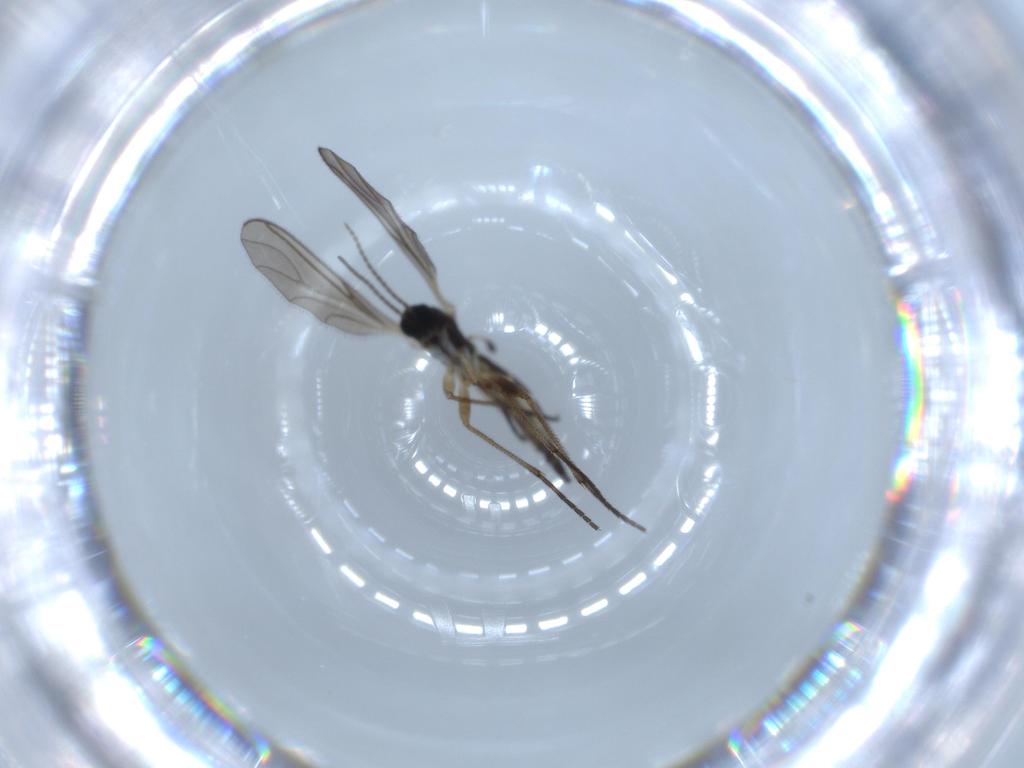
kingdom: Animalia
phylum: Arthropoda
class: Insecta
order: Diptera
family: Sciaridae
